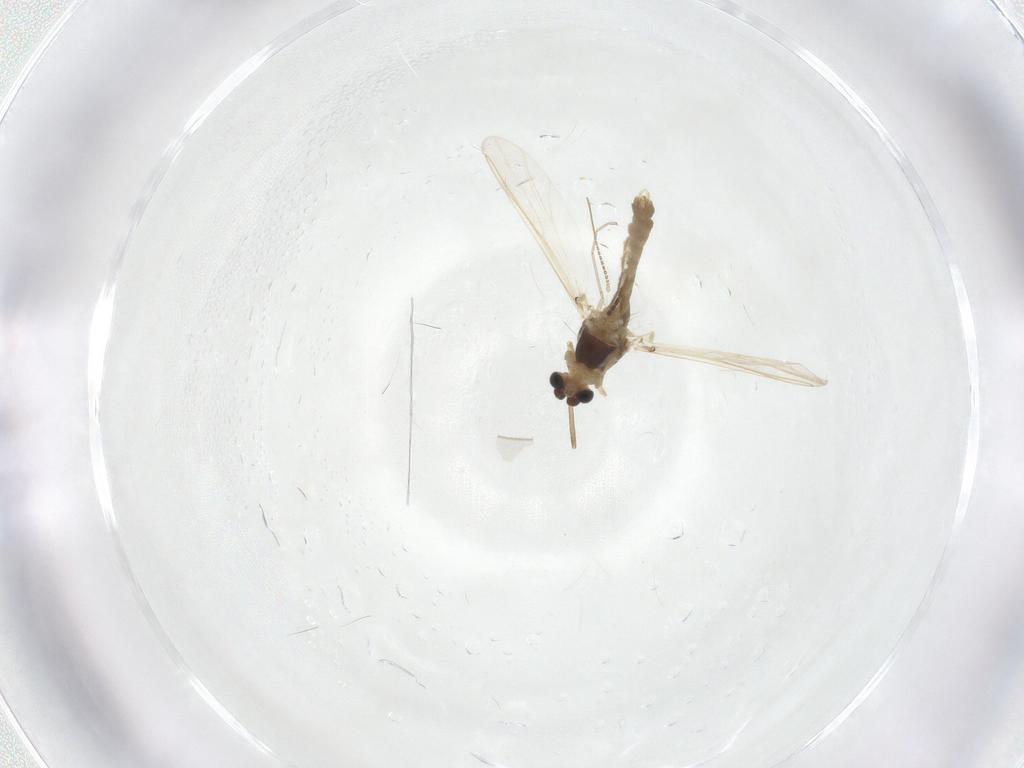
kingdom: Animalia
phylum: Arthropoda
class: Insecta
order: Diptera
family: Chironomidae
